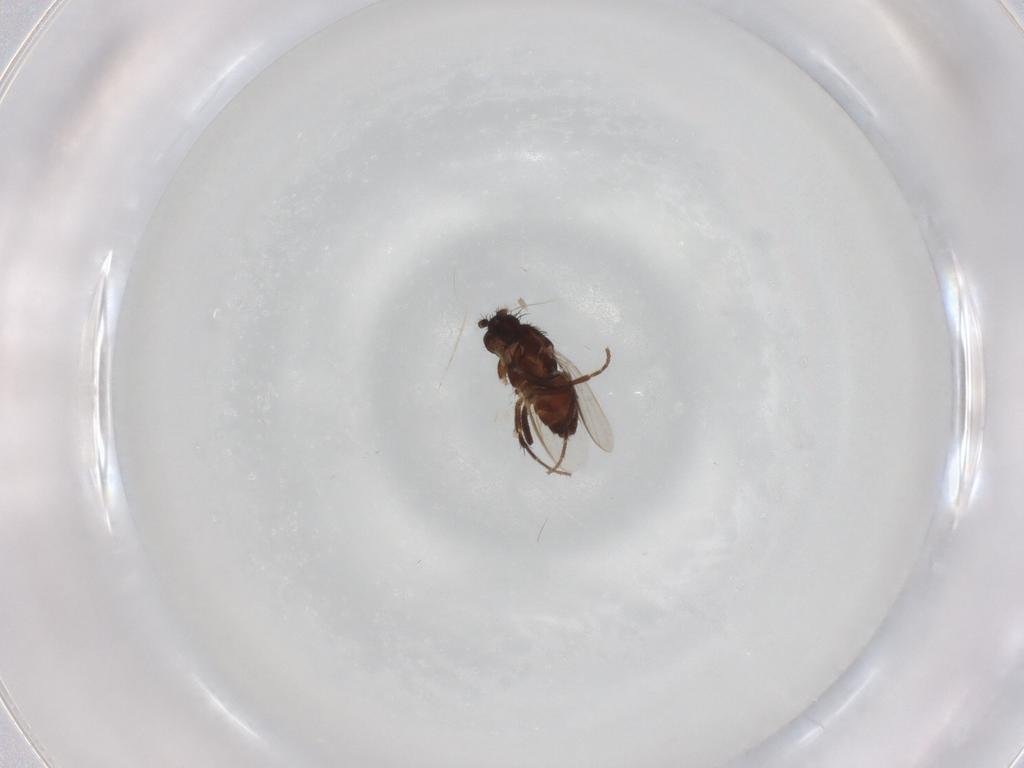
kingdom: Animalia
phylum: Arthropoda
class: Insecta
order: Diptera
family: Sphaeroceridae
